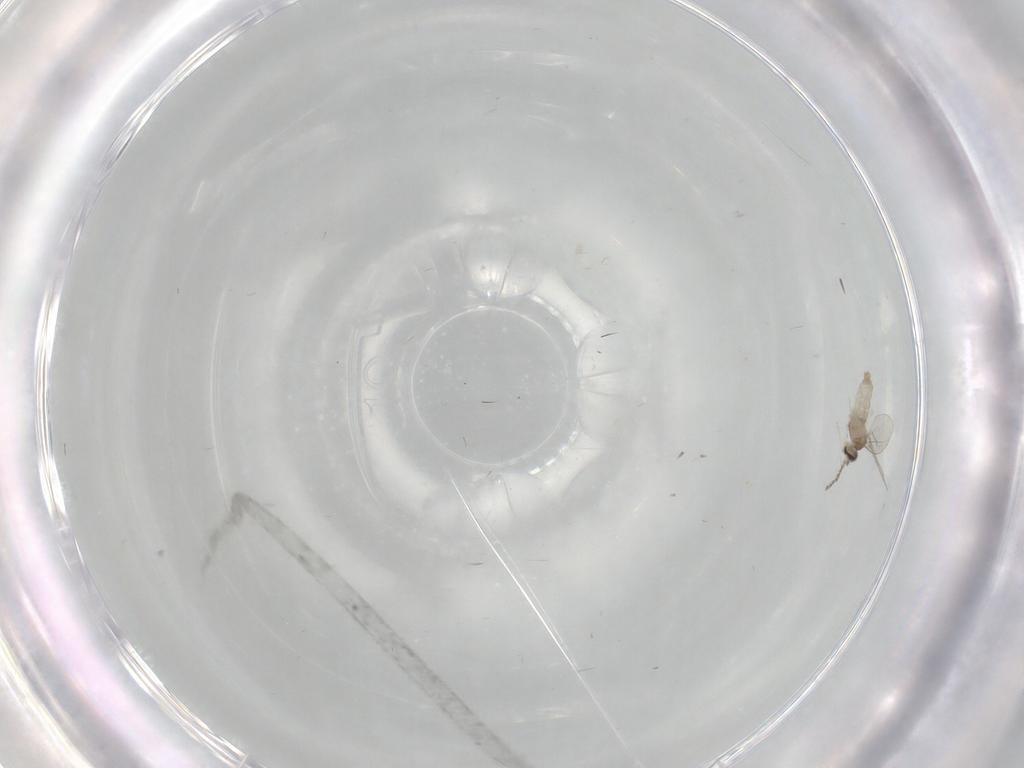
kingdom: Animalia
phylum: Arthropoda
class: Insecta
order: Diptera
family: Cecidomyiidae
